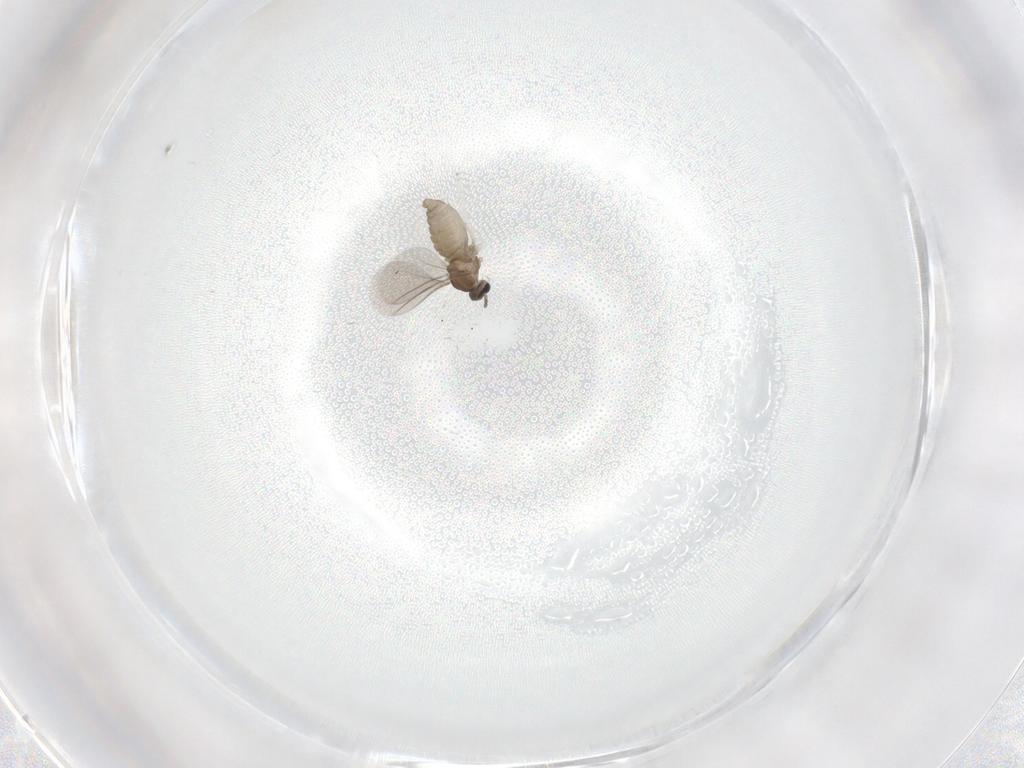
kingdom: Animalia
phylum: Arthropoda
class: Insecta
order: Diptera
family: Cecidomyiidae
